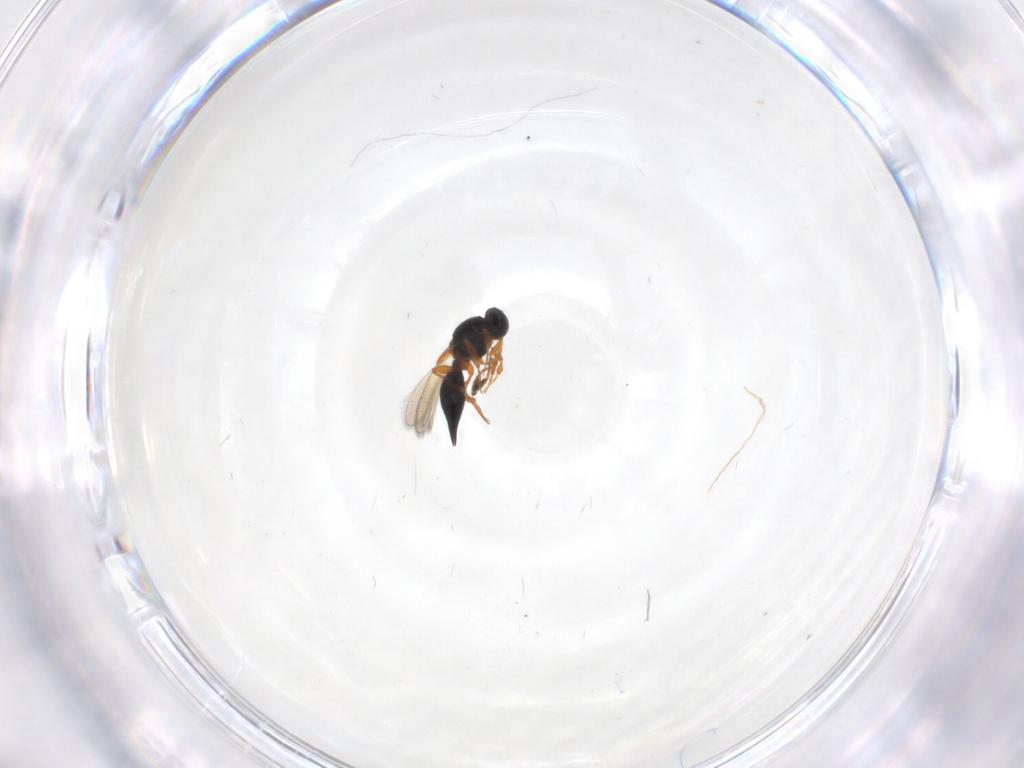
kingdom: Animalia
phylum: Arthropoda
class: Insecta
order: Hymenoptera
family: Platygastridae
